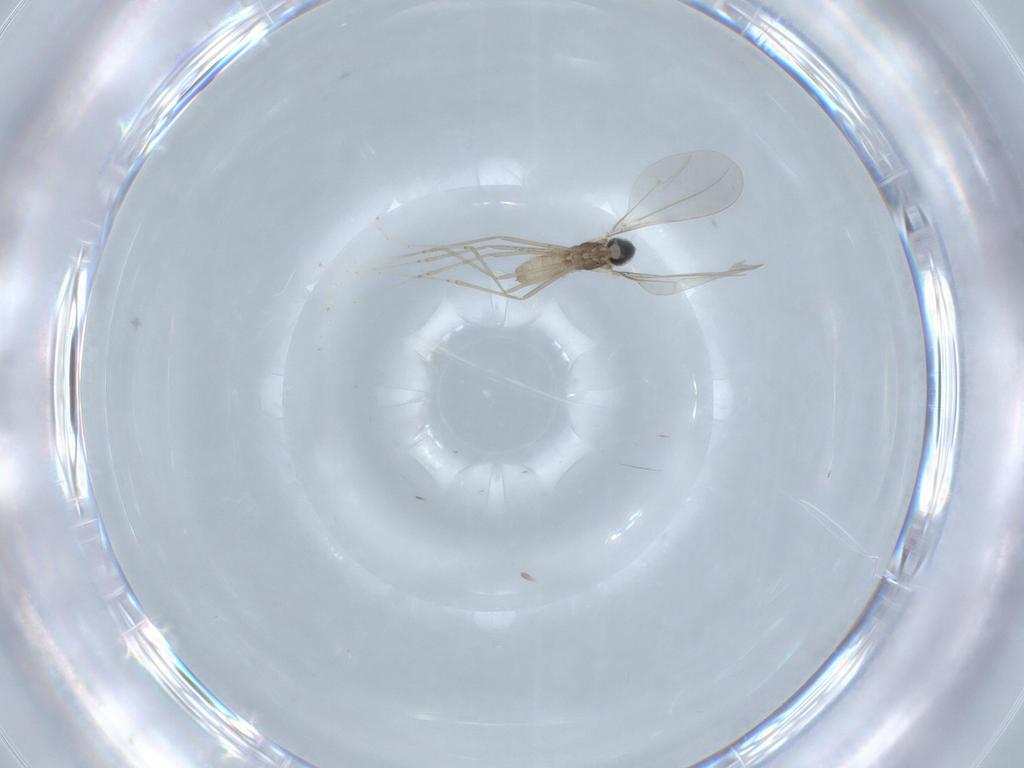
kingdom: Animalia
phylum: Arthropoda
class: Insecta
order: Diptera
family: Cecidomyiidae
